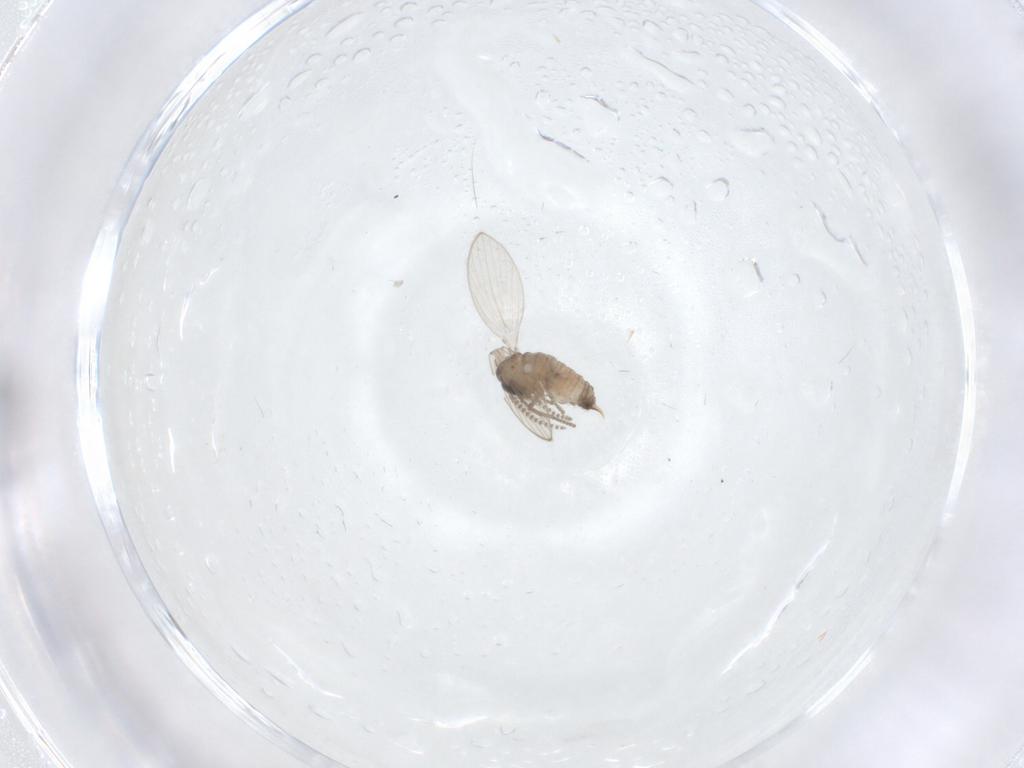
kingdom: Animalia
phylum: Arthropoda
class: Insecta
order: Diptera
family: Psychodidae
